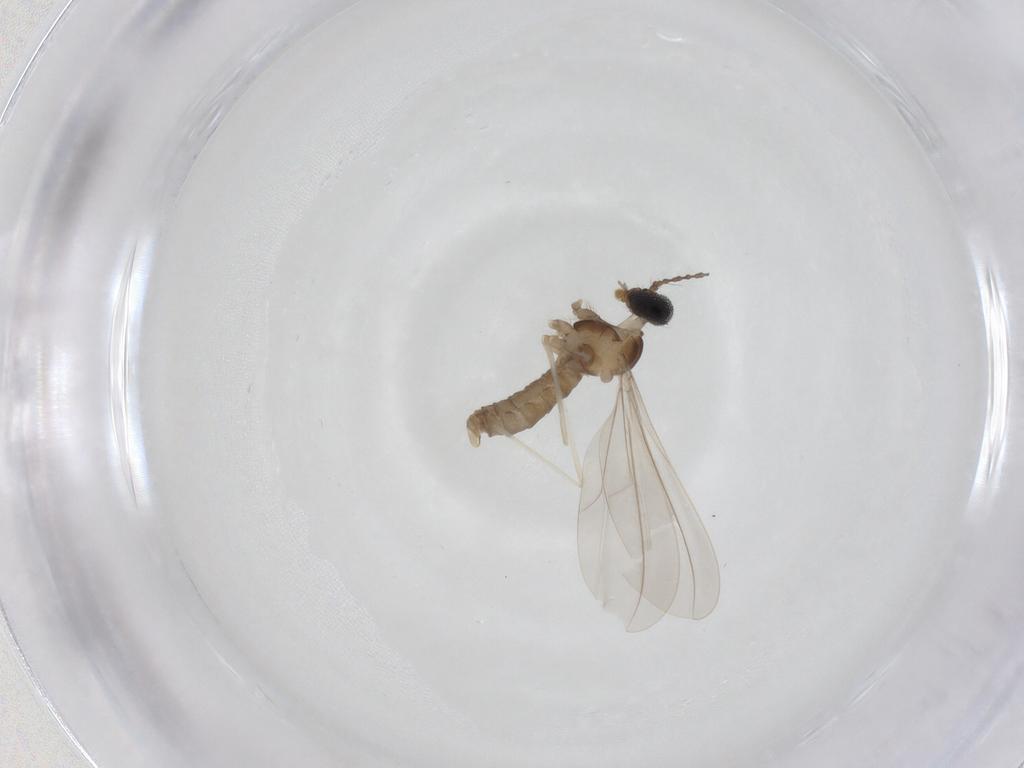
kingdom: Animalia
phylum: Arthropoda
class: Insecta
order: Diptera
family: Cecidomyiidae
